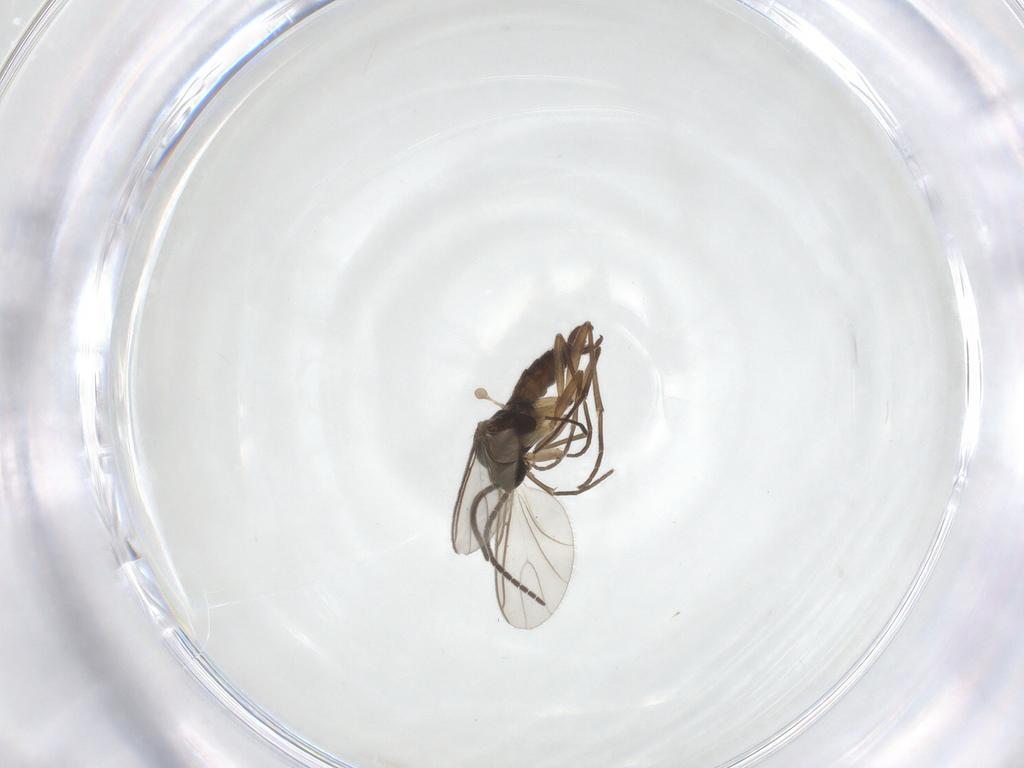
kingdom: Animalia
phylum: Arthropoda
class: Insecta
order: Diptera
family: Sciaridae
